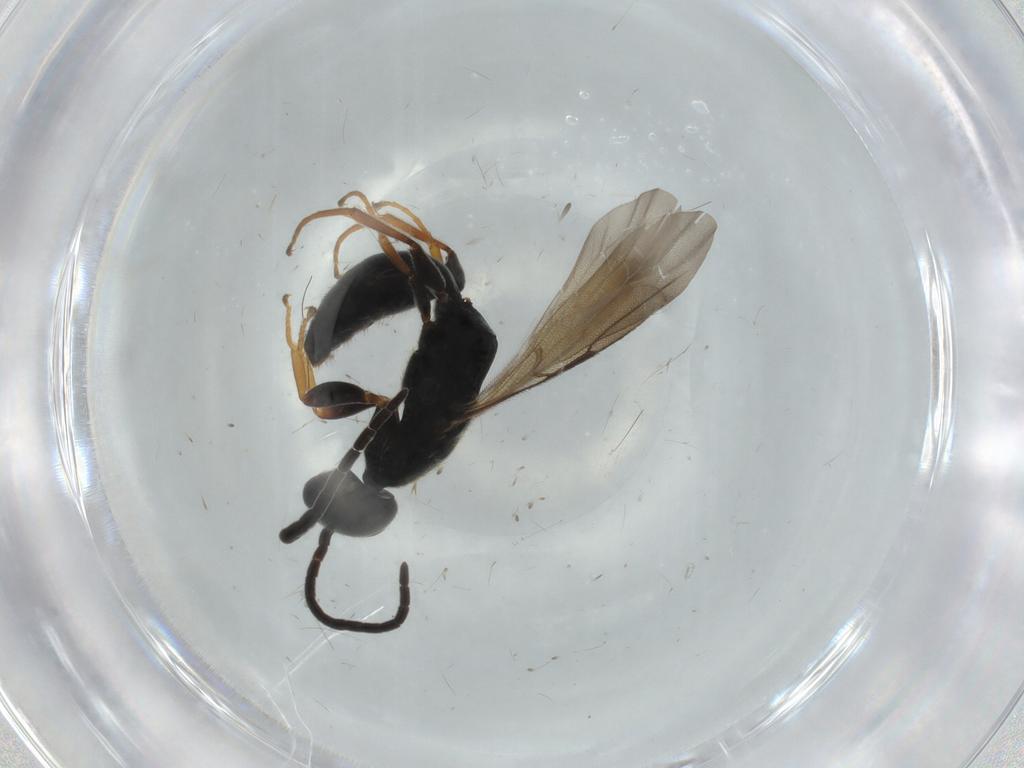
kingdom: Animalia
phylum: Arthropoda
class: Insecta
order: Hymenoptera
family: Bethylidae
